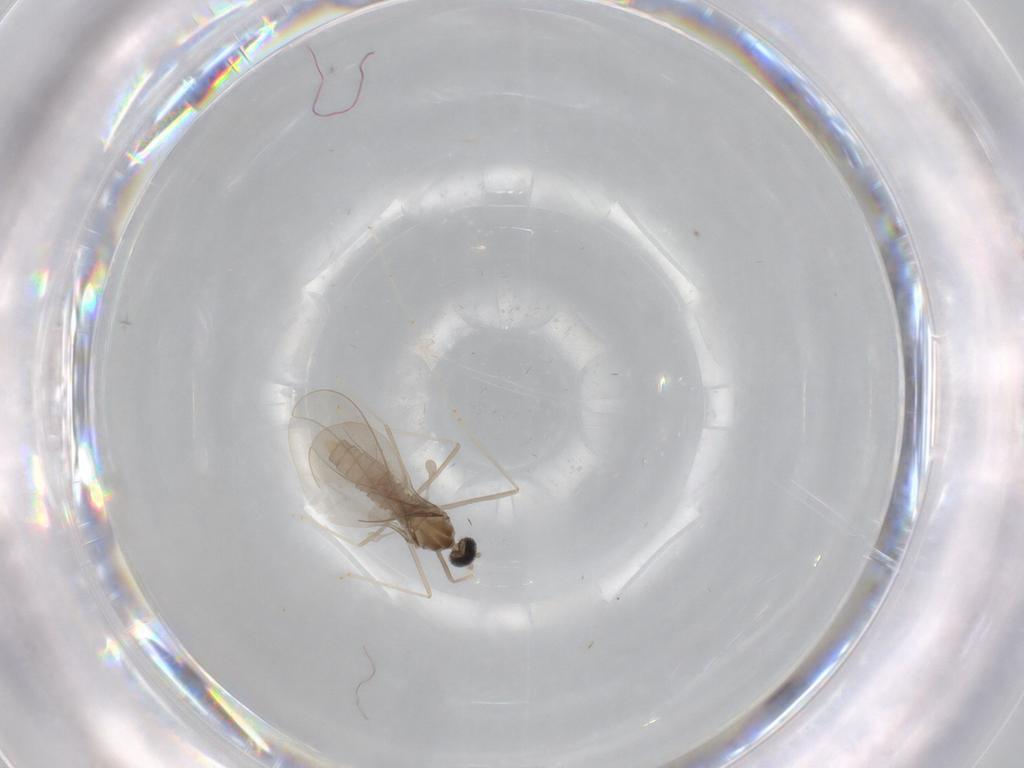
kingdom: Animalia
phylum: Arthropoda
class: Insecta
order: Diptera
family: Cecidomyiidae
